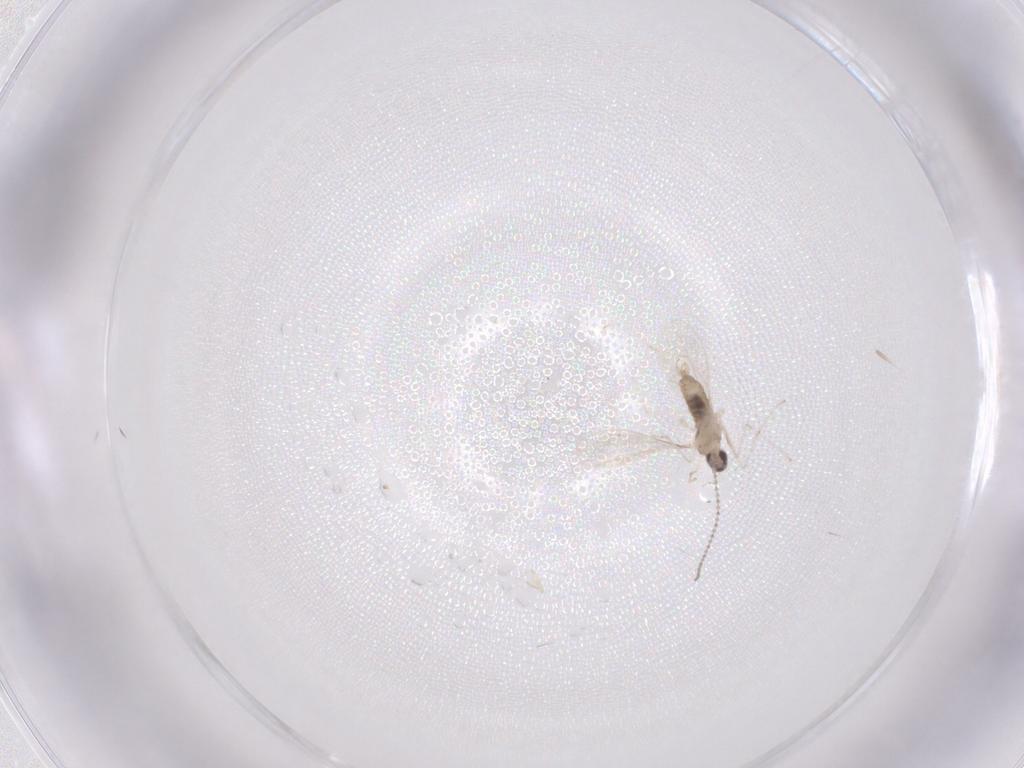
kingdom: Animalia
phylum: Arthropoda
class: Insecta
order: Diptera
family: Cecidomyiidae
